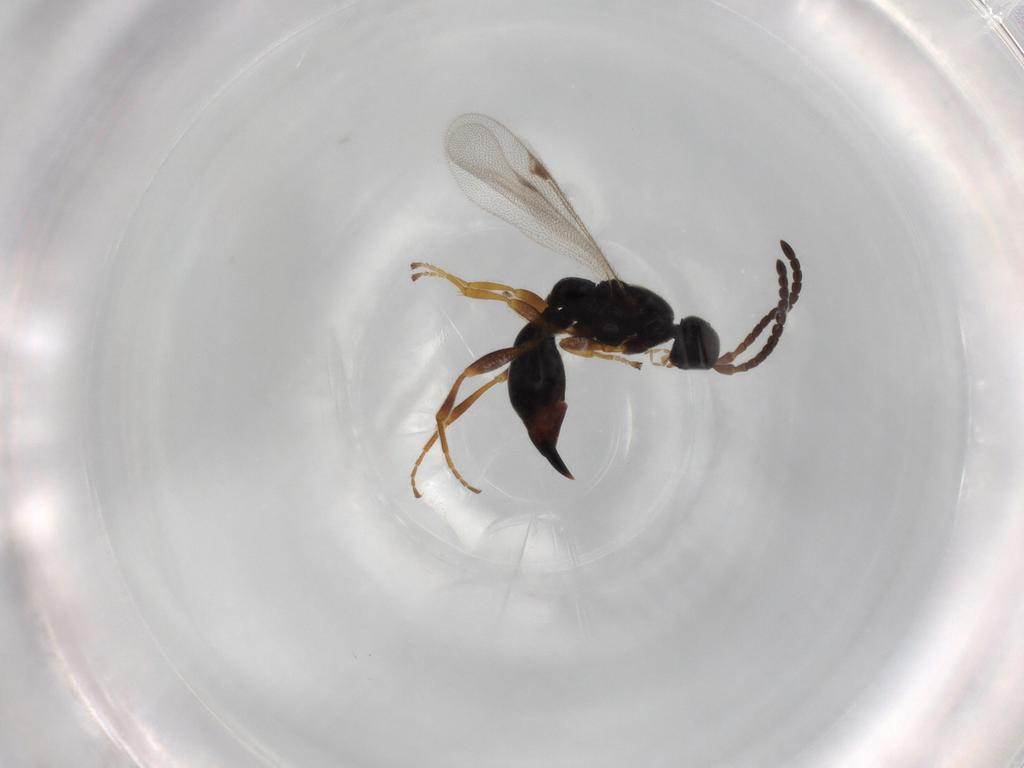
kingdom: Animalia
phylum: Arthropoda
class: Insecta
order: Hymenoptera
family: Proctotrupidae
